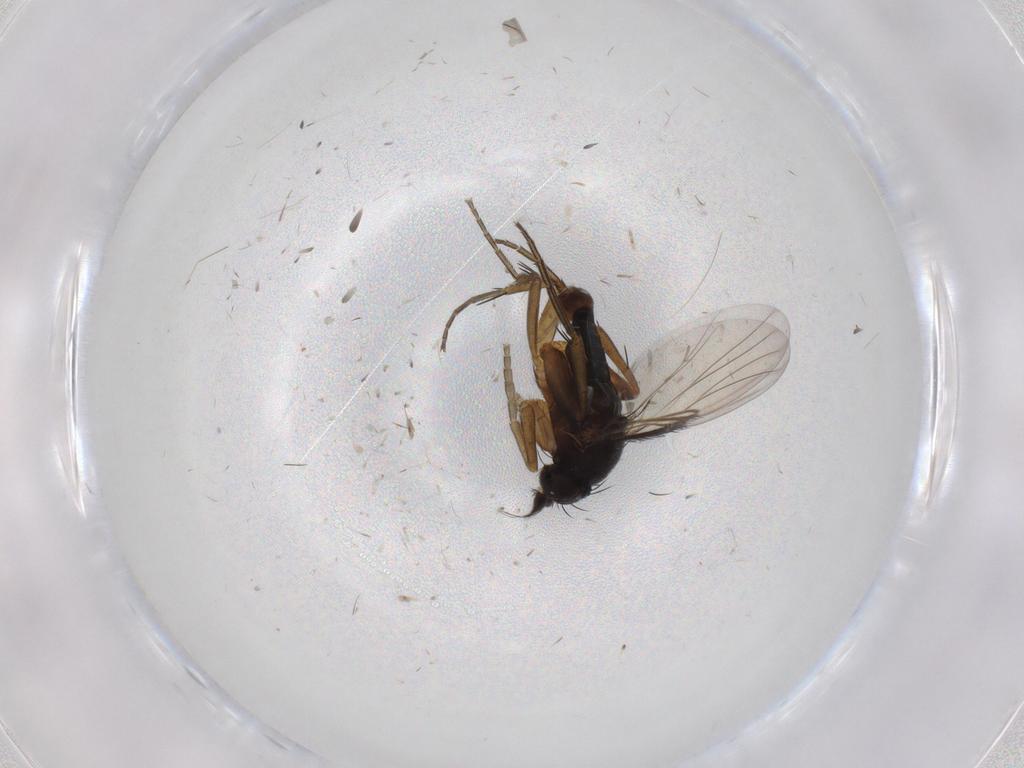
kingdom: Animalia
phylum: Arthropoda
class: Insecta
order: Diptera
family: Phoridae
